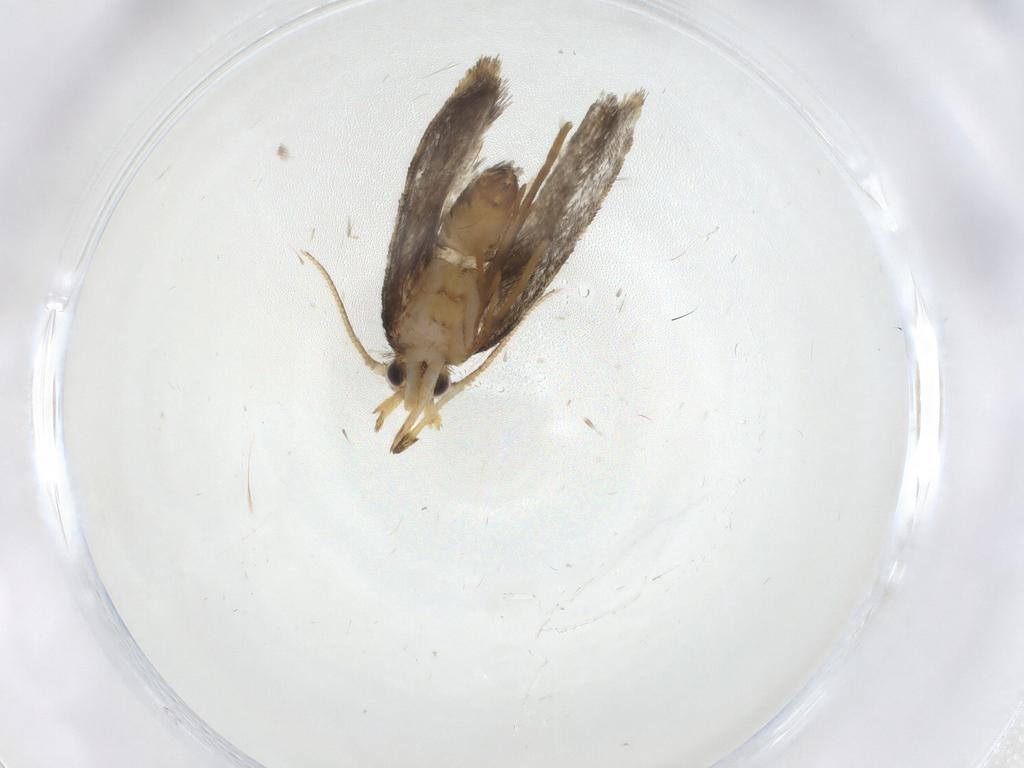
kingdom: Animalia
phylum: Arthropoda
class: Insecta
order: Lepidoptera
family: Psychidae
